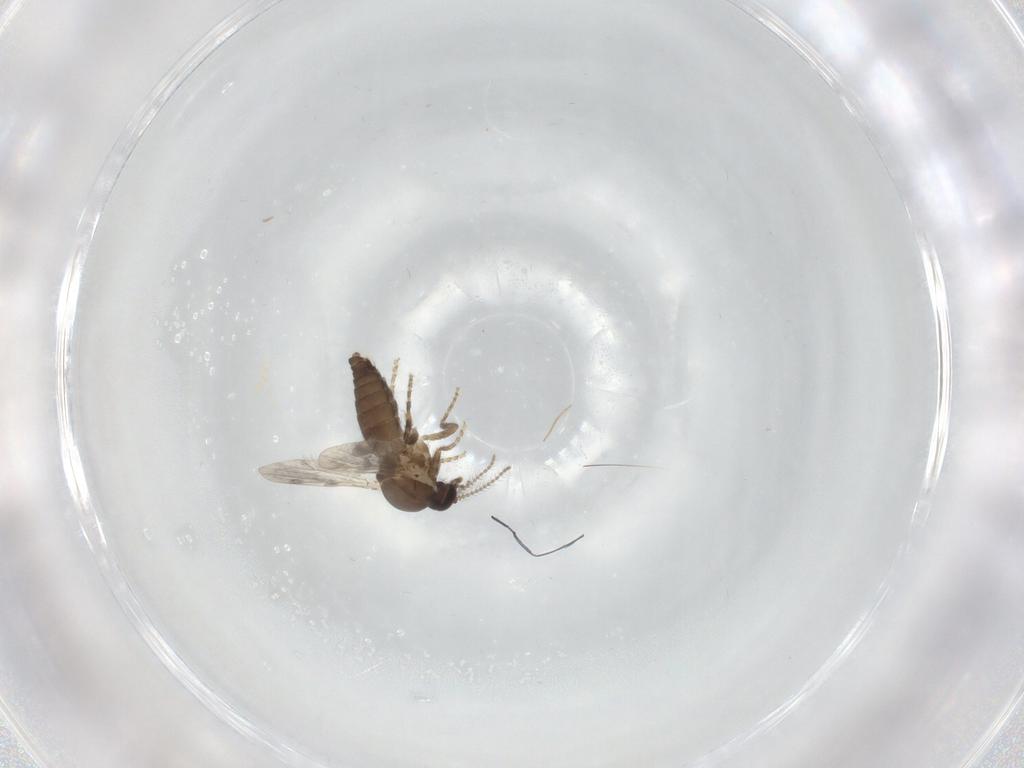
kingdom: Animalia
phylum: Arthropoda
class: Insecta
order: Diptera
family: Ceratopogonidae
